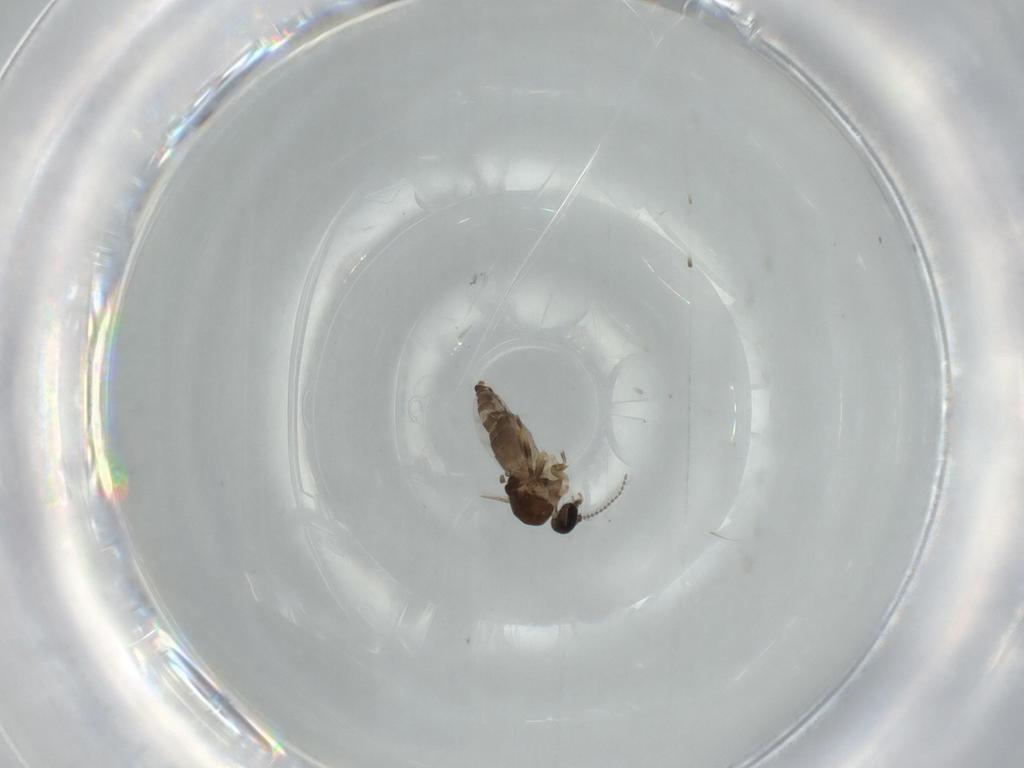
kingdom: Animalia
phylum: Arthropoda
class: Insecta
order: Diptera
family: Ceratopogonidae
